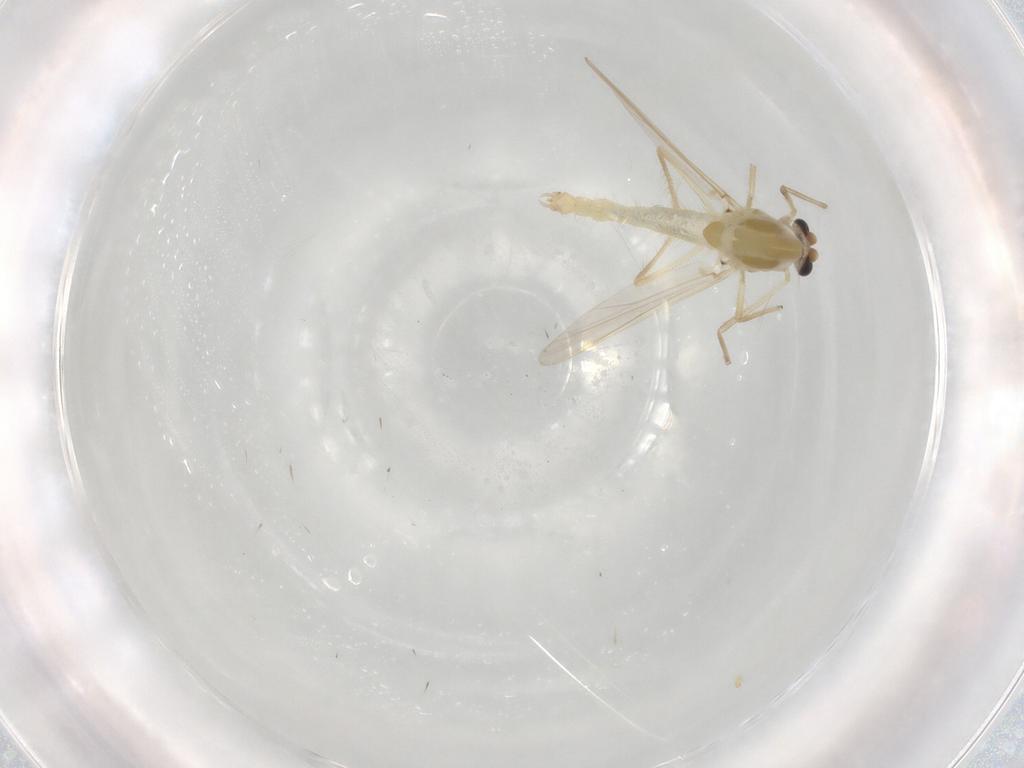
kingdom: Animalia
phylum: Arthropoda
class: Insecta
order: Diptera
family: Chironomidae
